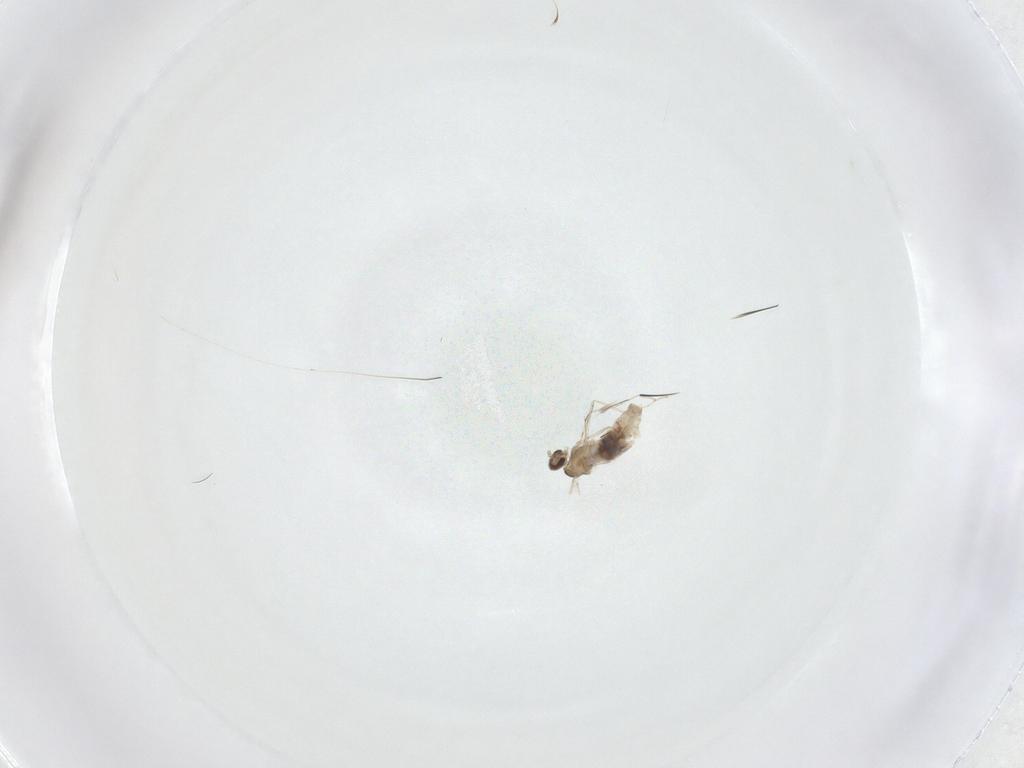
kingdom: Animalia
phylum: Arthropoda
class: Insecta
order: Diptera
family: Cecidomyiidae
